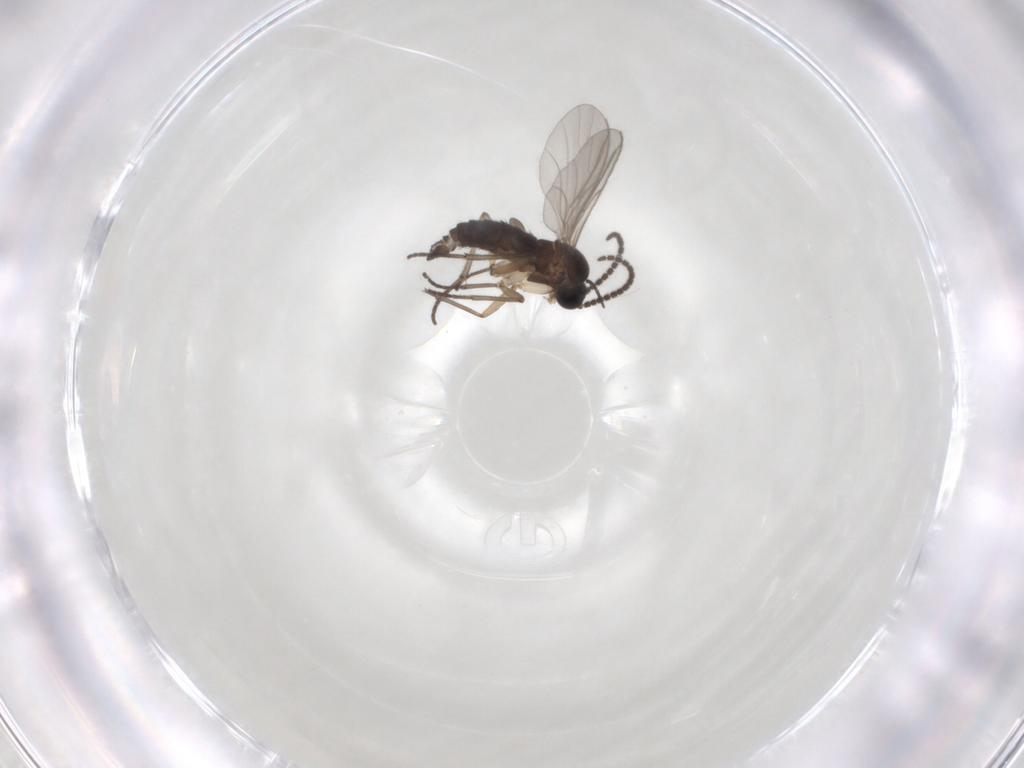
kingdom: Animalia
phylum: Arthropoda
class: Insecta
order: Diptera
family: Sciaridae
